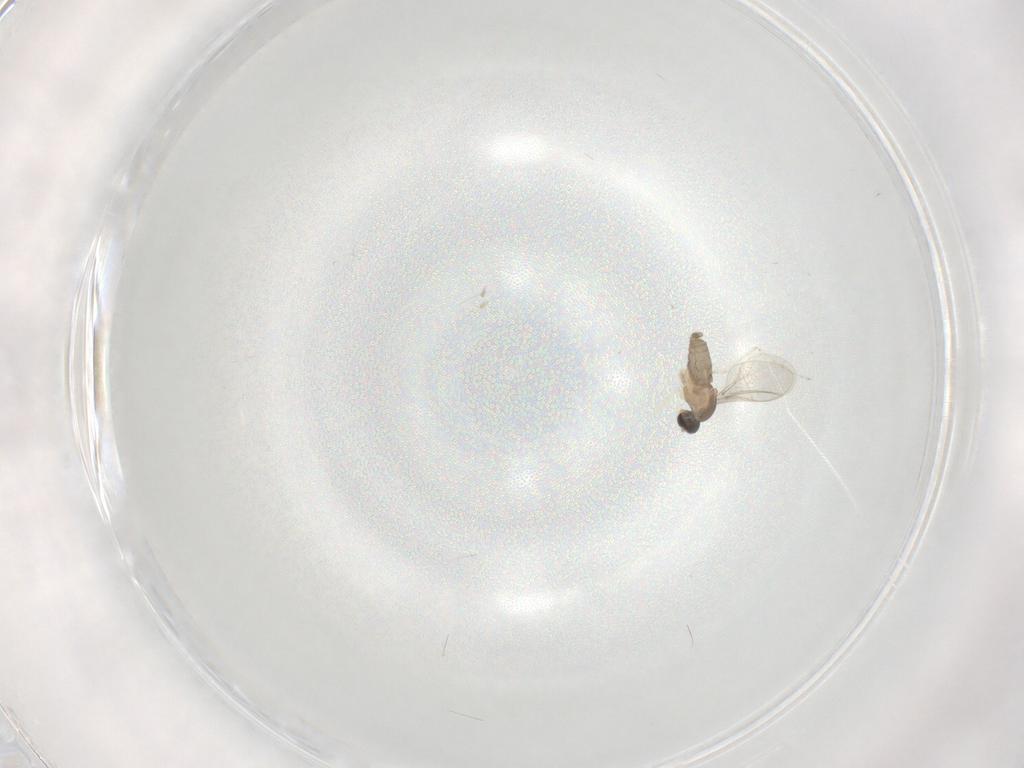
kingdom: Animalia
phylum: Arthropoda
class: Insecta
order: Diptera
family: Cecidomyiidae
